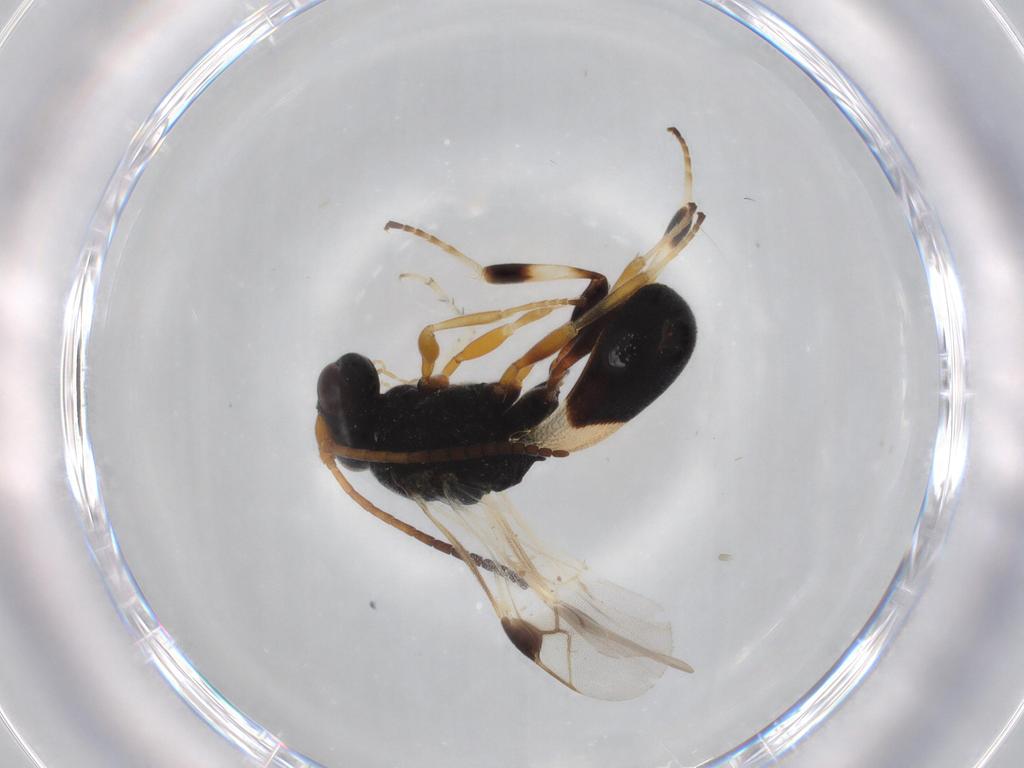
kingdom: Animalia
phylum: Arthropoda
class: Insecta
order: Hymenoptera
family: Braconidae
